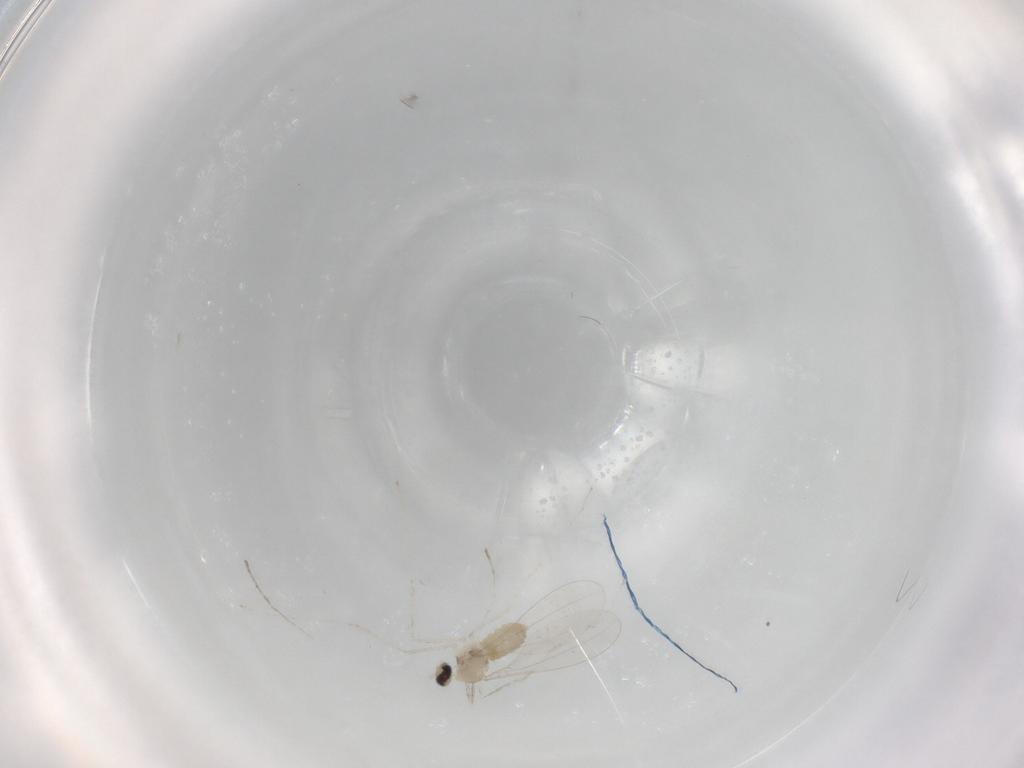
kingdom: Animalia
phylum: Arthropoda
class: Insecta
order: Diptera
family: Cecidomyiidae
